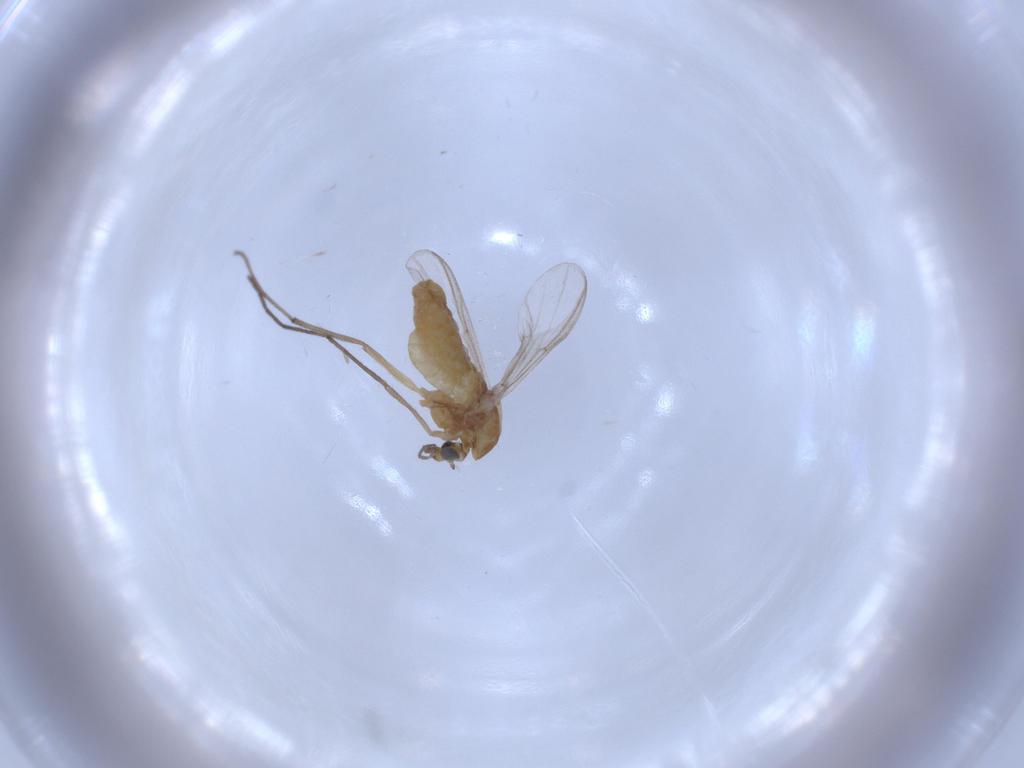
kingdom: Animalia
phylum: Arthropoda
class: Insecta
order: Diptera
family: Chironomidae
